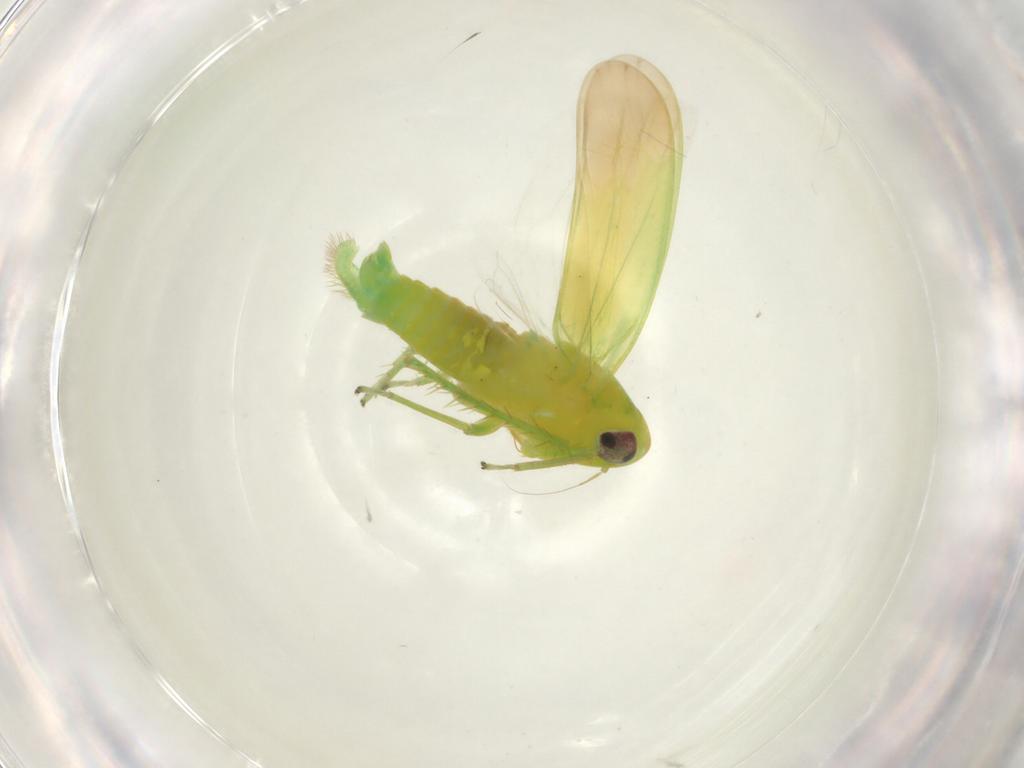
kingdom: Animalia
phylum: Arthropoda
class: Insecta
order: Hemiptera
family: Cicadellidae
